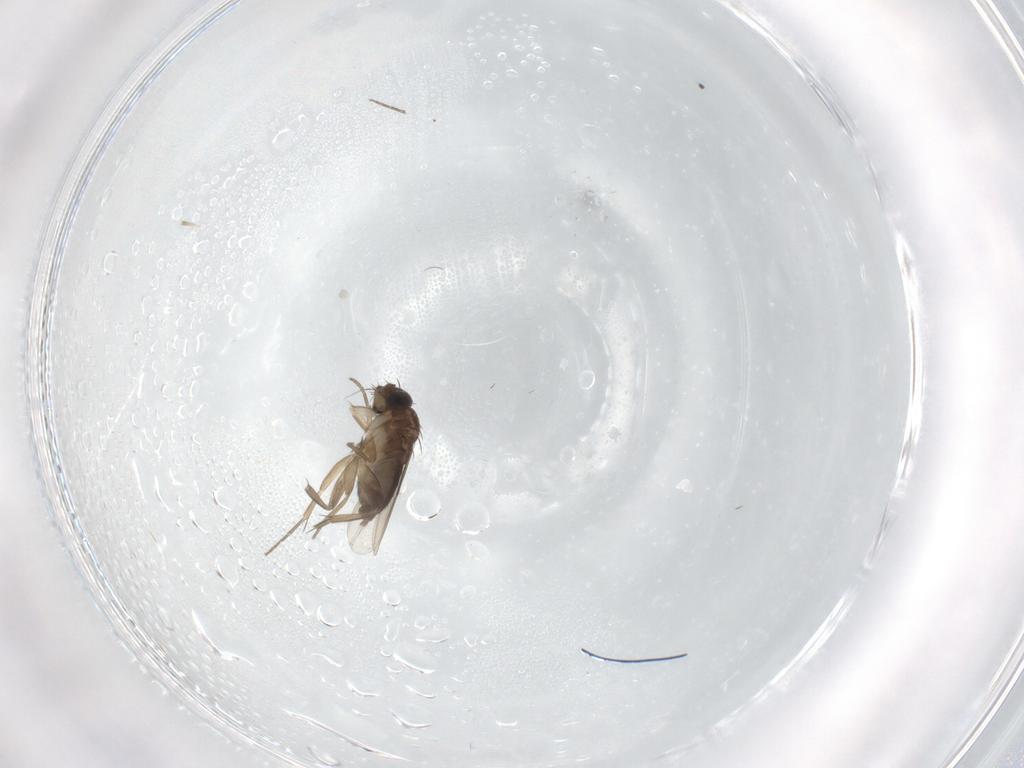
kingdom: Animalia
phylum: Arthropoda
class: Insecta
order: Diptera
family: Cecidomyiidae
